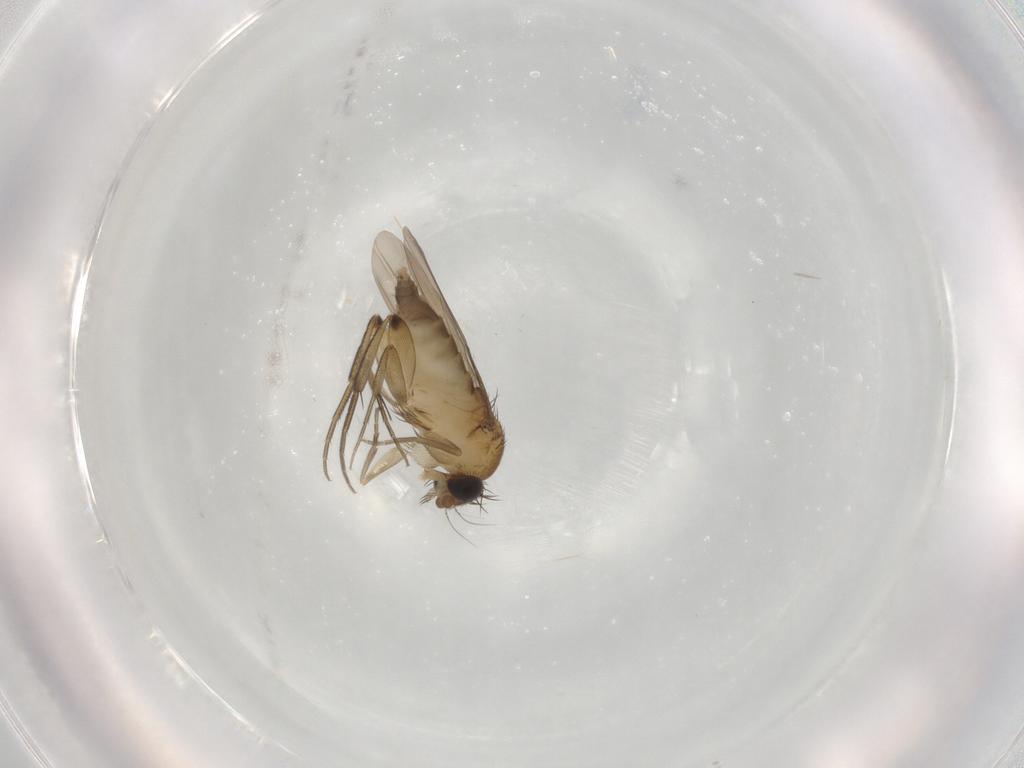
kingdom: Animalia
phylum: Arthropoda
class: Insecta
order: Diptera
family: Phoridae
